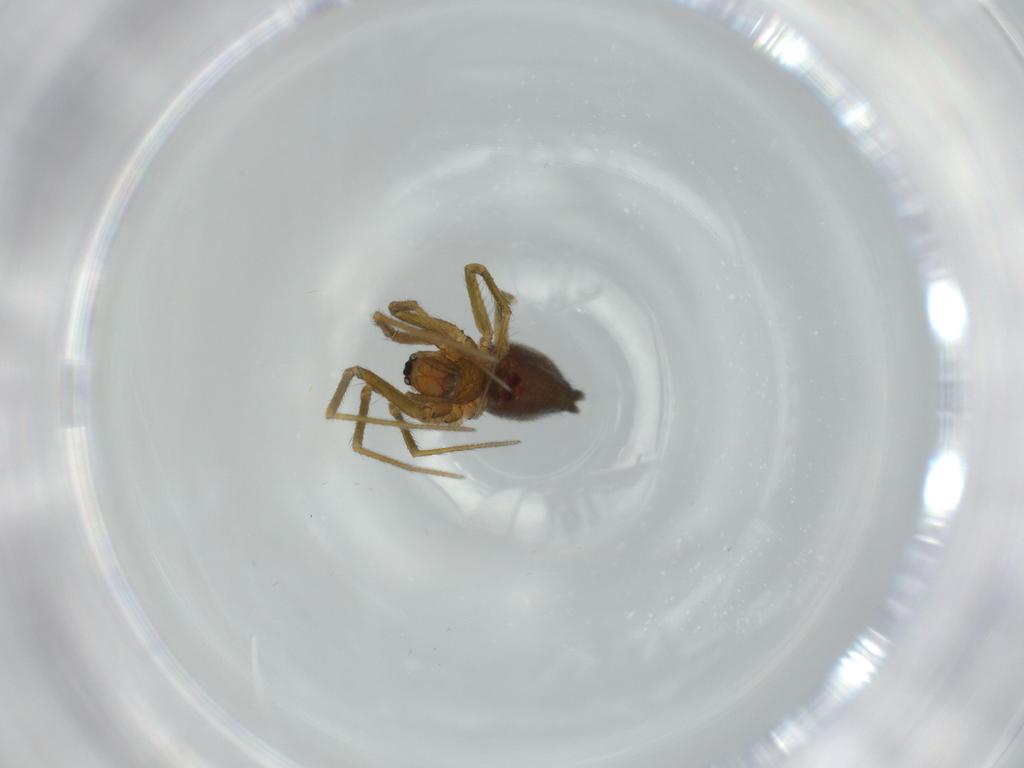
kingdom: Animalia
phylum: Arthropoda
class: Arachnida
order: Araneae
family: Linyphiidae
